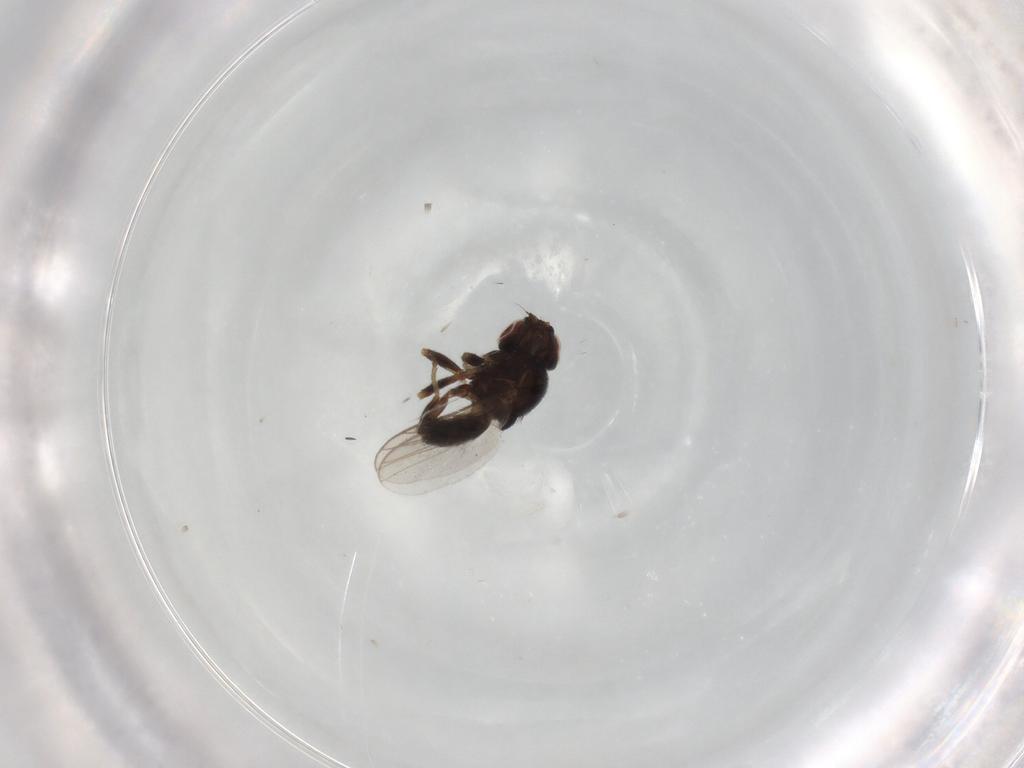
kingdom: Animalia
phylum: Arthropoda
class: Insecta
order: Diptera
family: Chloropidae
